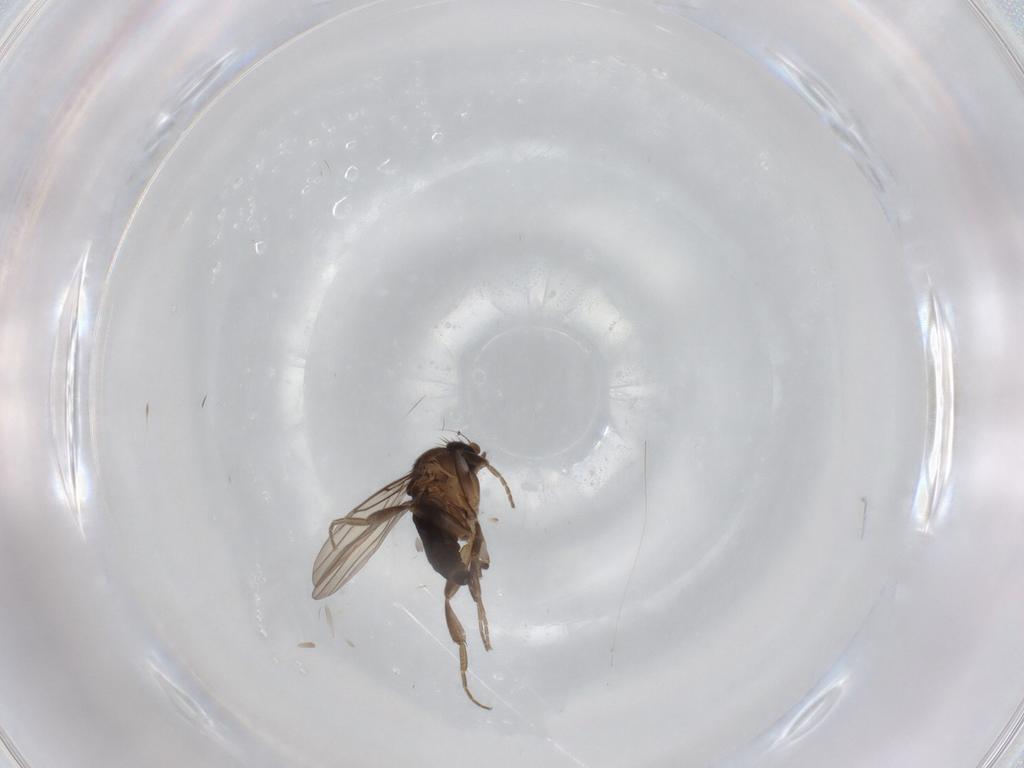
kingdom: Animalia
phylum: Arthropoda
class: Insecta
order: Diptera
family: Phoridae
